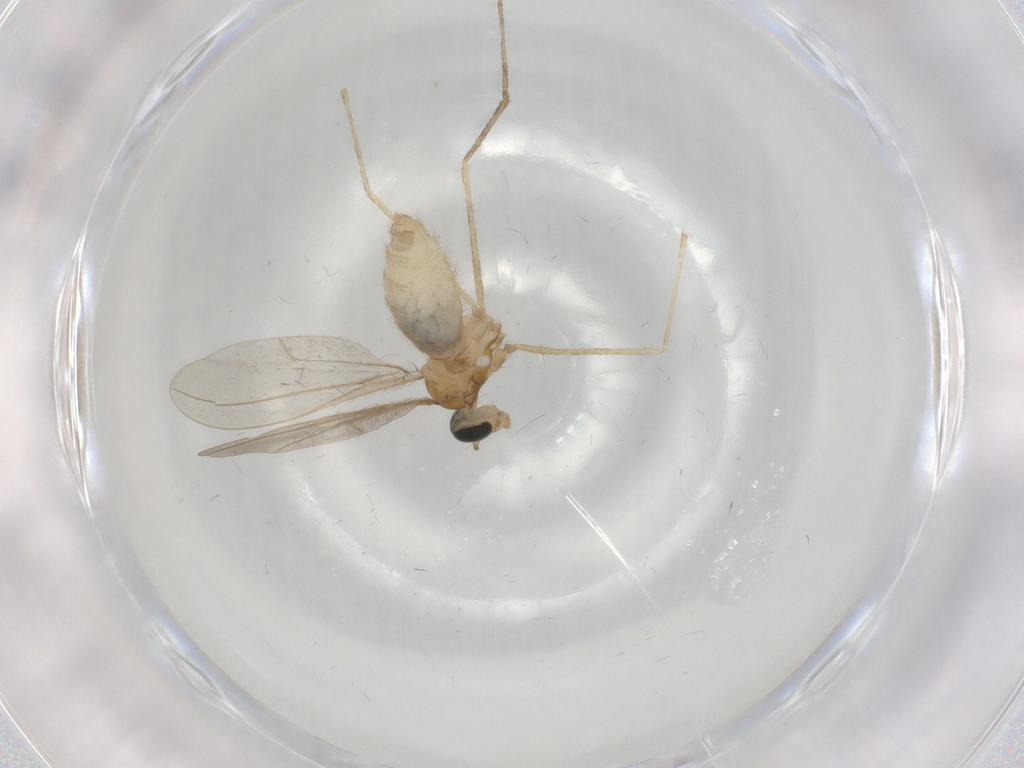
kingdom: Animalia
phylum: Arthropoda
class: Insecta
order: Diptera
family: Cecidomyiidae
